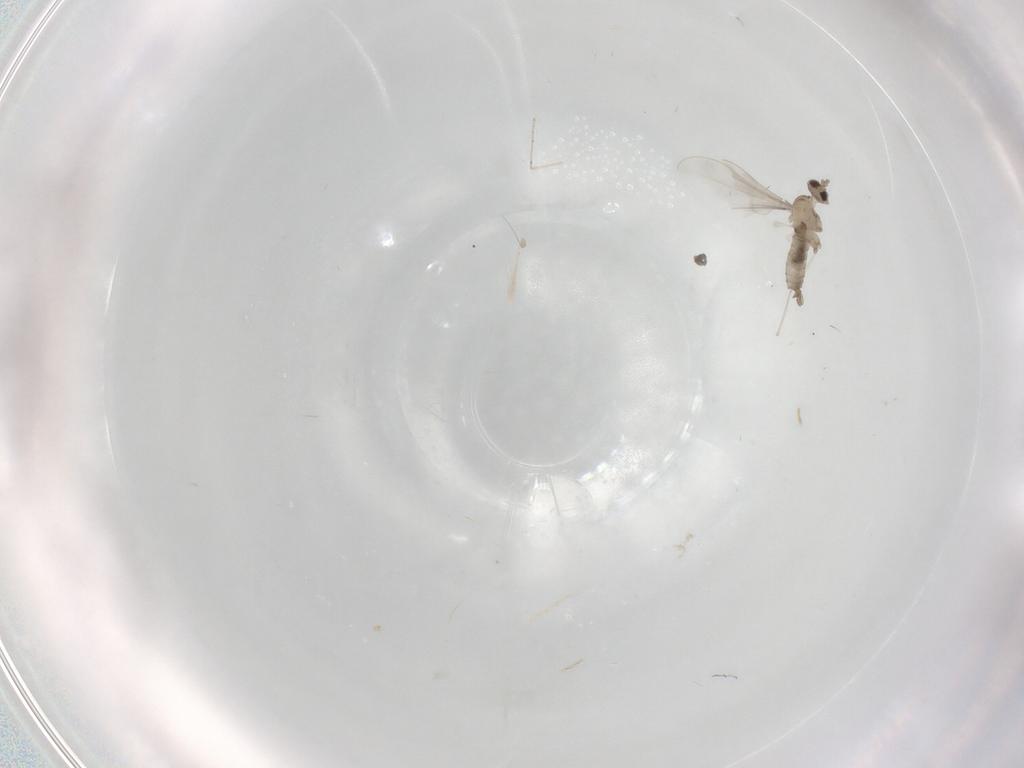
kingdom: Animalia
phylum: Arthropoda
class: Insecta
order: Diptera
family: Cecidomyiidae
